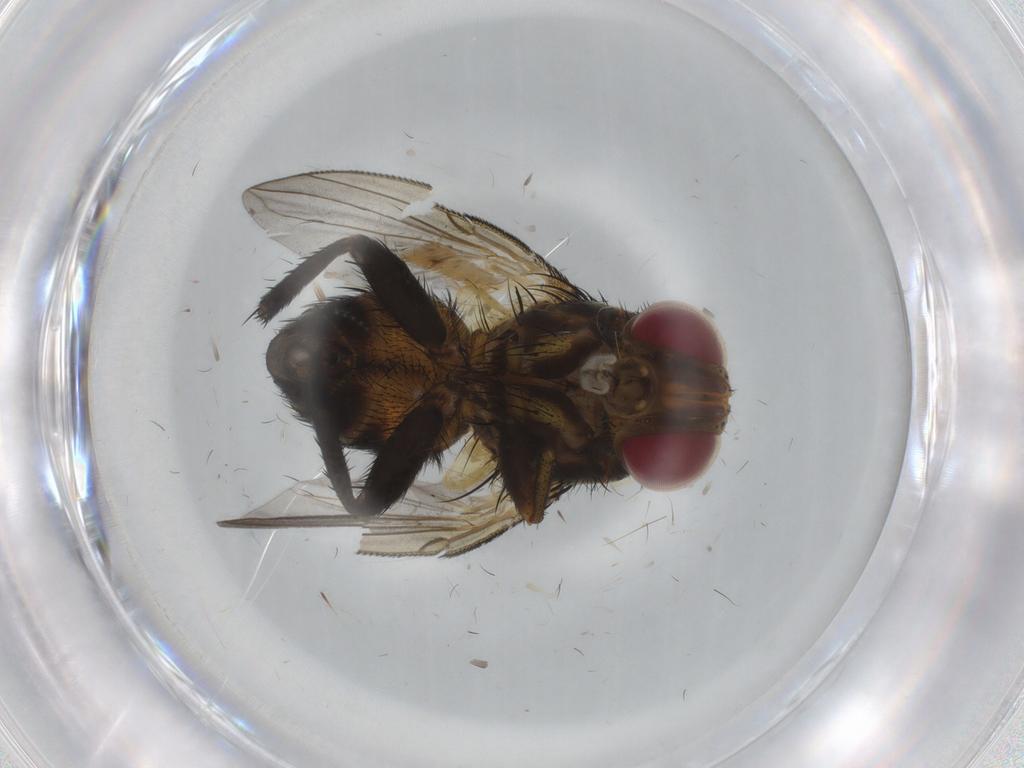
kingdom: Animalia
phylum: Arthropoda
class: Insecta
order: Diptera
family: Tachinidae
